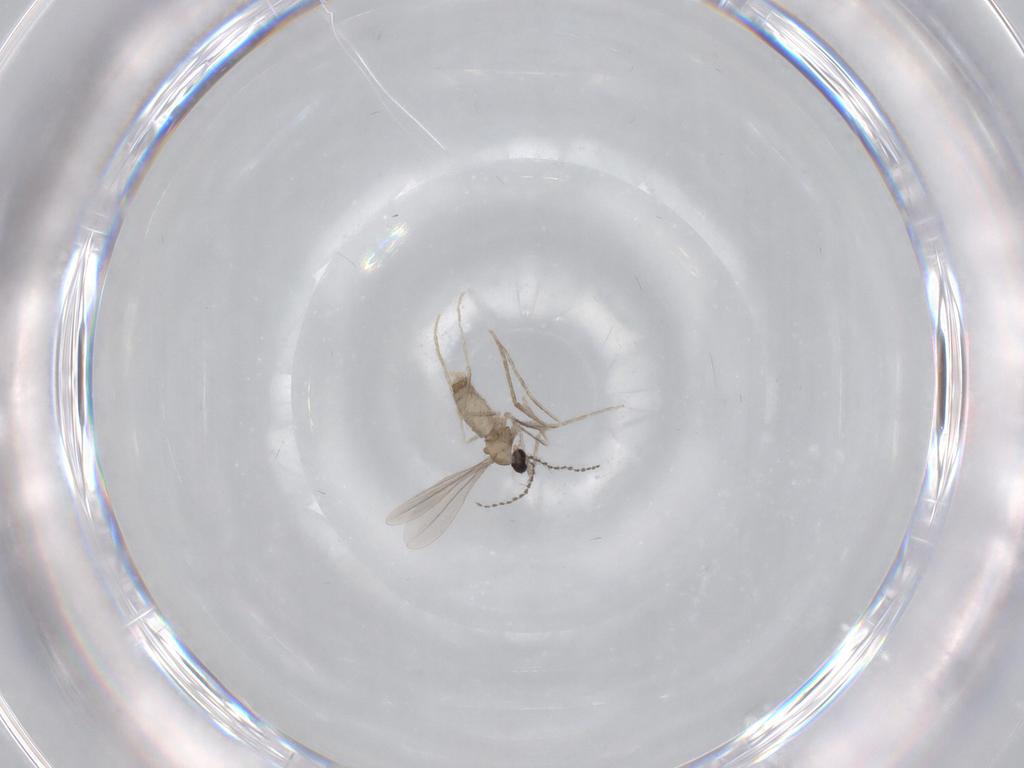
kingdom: Animalia
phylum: Arthropoda
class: Insecta
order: Diptera
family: Cecidomyiidae
